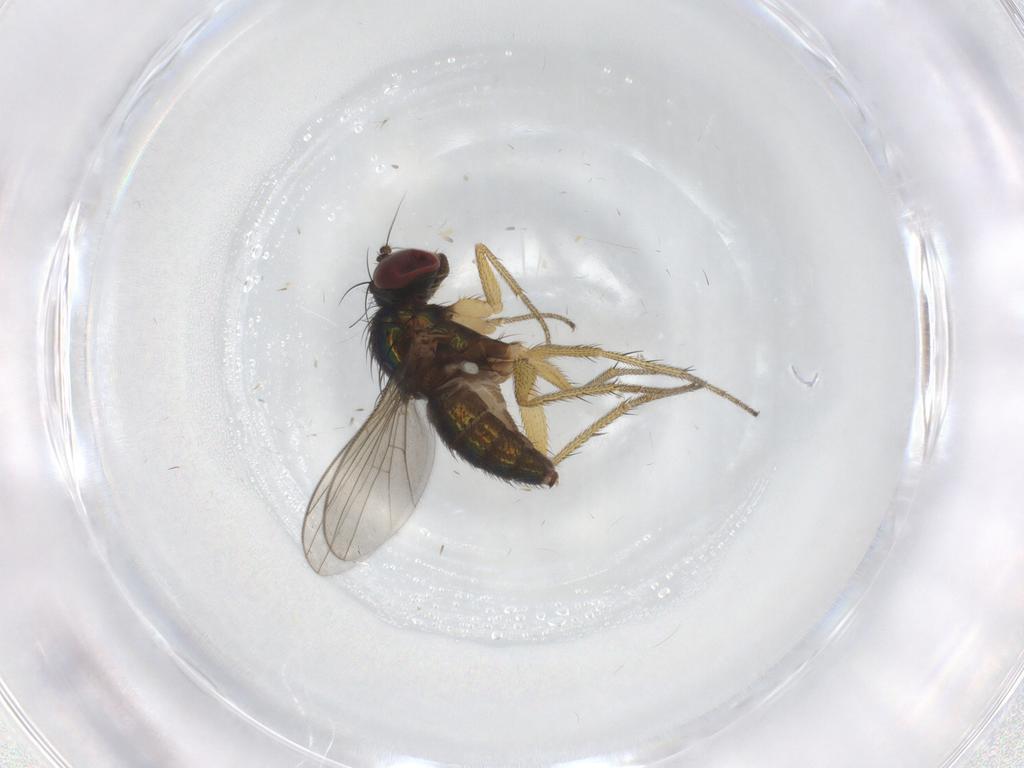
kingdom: Animalia
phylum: Arthropoda
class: Insecta
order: Diptera
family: Dolichopodidae
